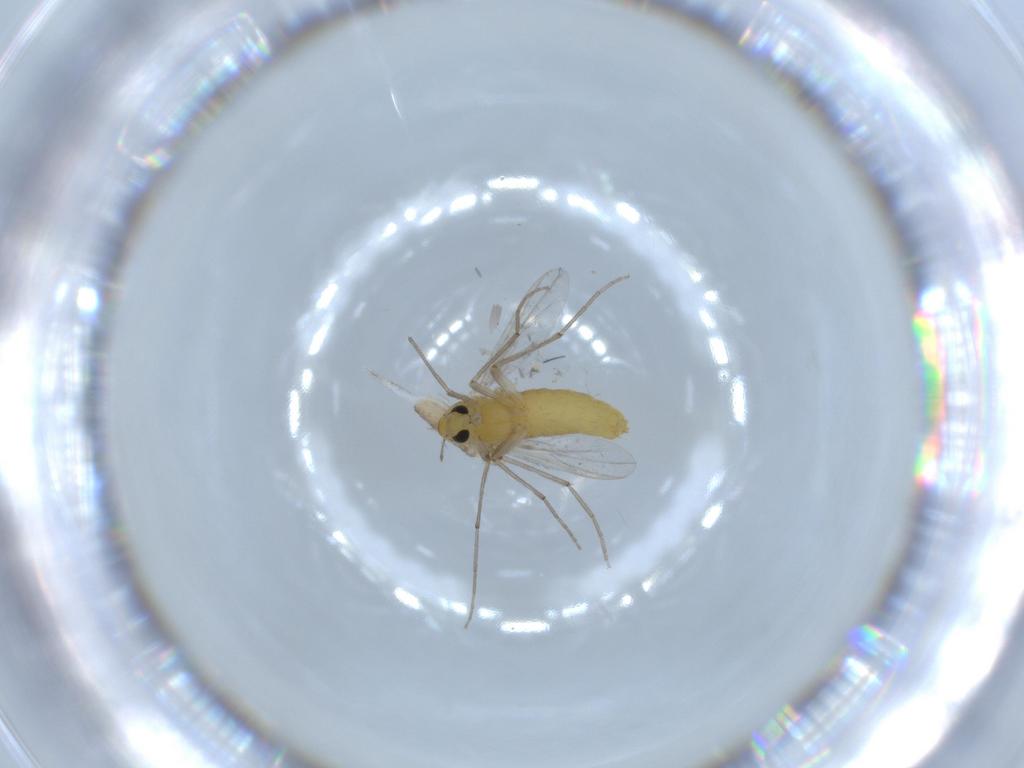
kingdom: Animalia
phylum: Arthropoda
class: Insecta
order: Diptera
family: Chironomidae
